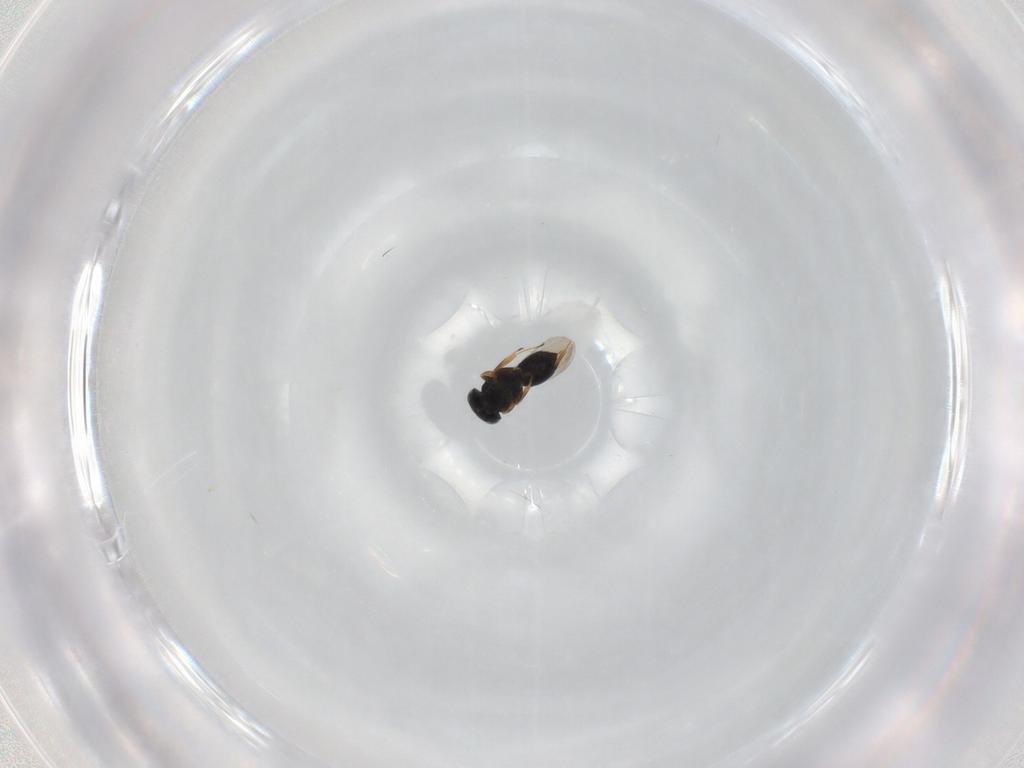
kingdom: Animalia
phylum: Arthropoda
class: Insecta
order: Hymenoptera
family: Scelionidae
